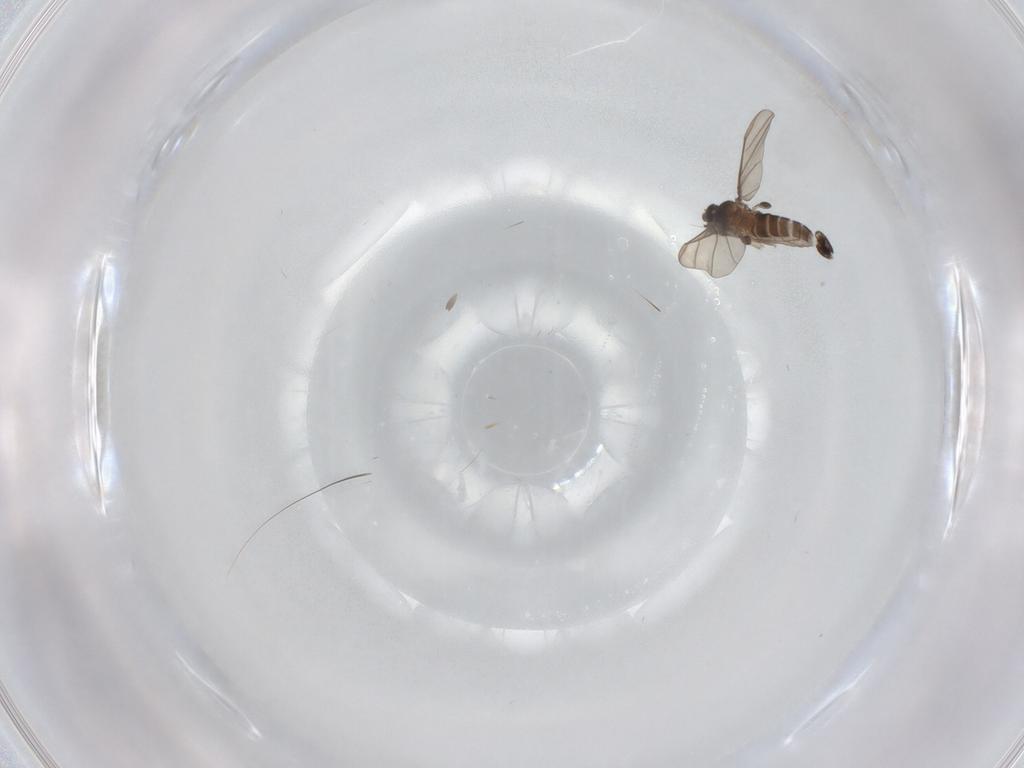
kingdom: Animalia
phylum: Arthropoda
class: Insecta
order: Diptera
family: Phoridae
